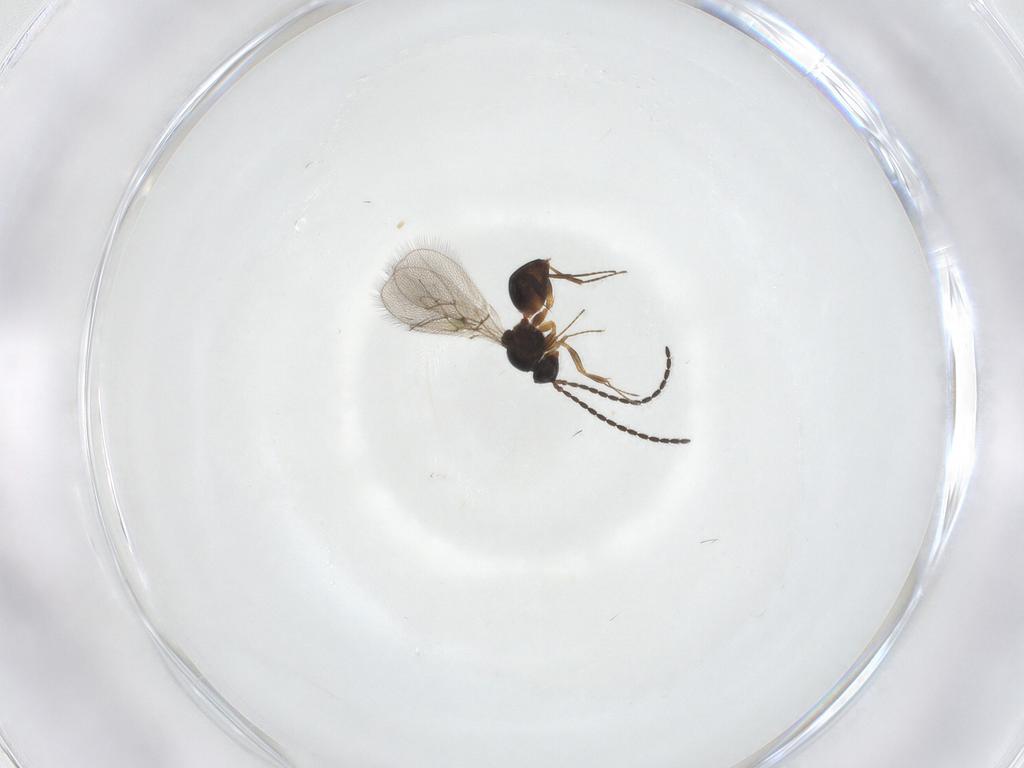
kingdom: Animalia
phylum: Arthropoda
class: Insecta
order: Hymenoptera
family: Figitidae
